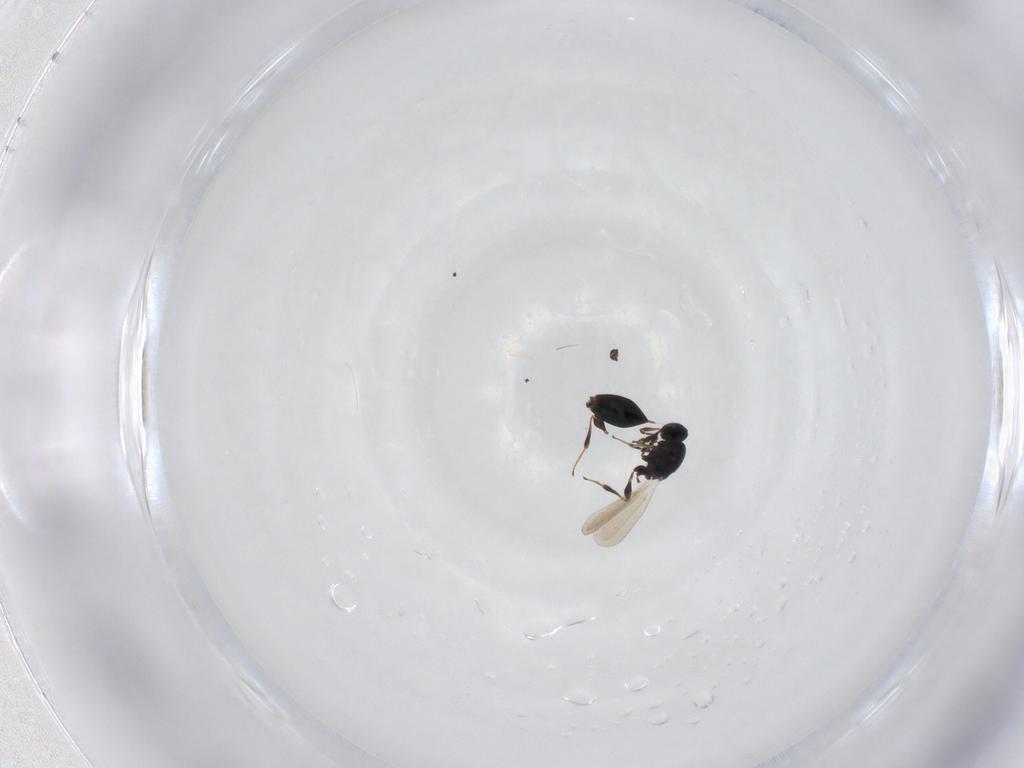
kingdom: Animalia
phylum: Arthropoda
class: Insecta
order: Hymenoptera
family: Platygastridae
